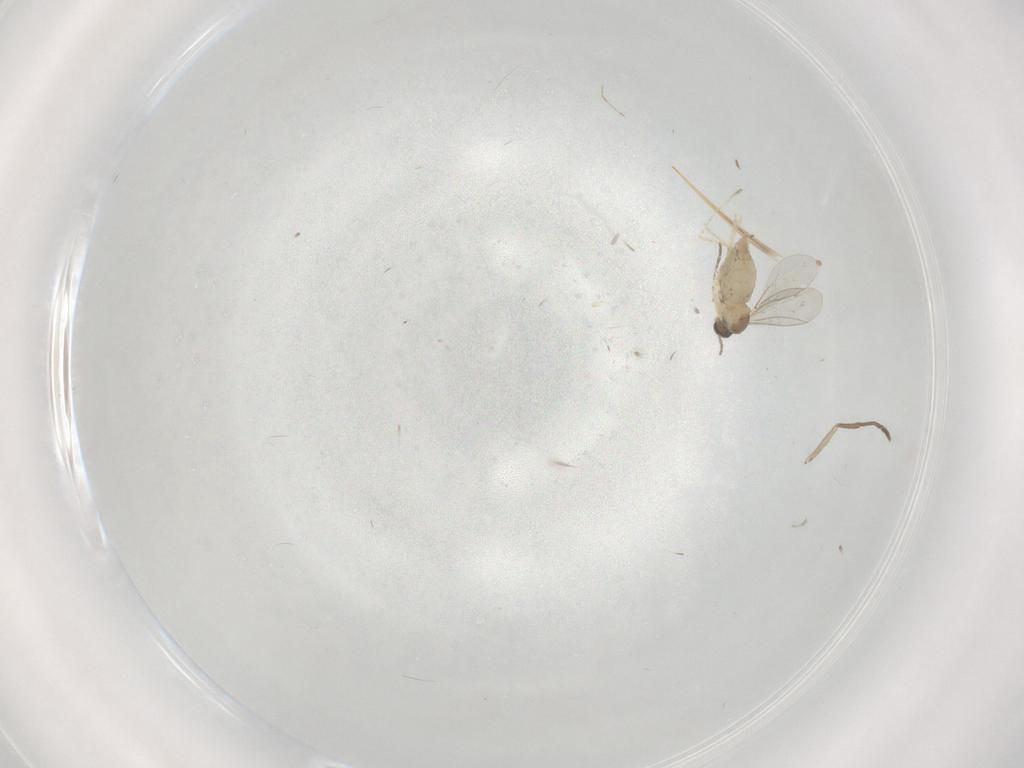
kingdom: Animalia
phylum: Arthropoda
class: Insecta
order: Diptera
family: Cecidomyiidae
